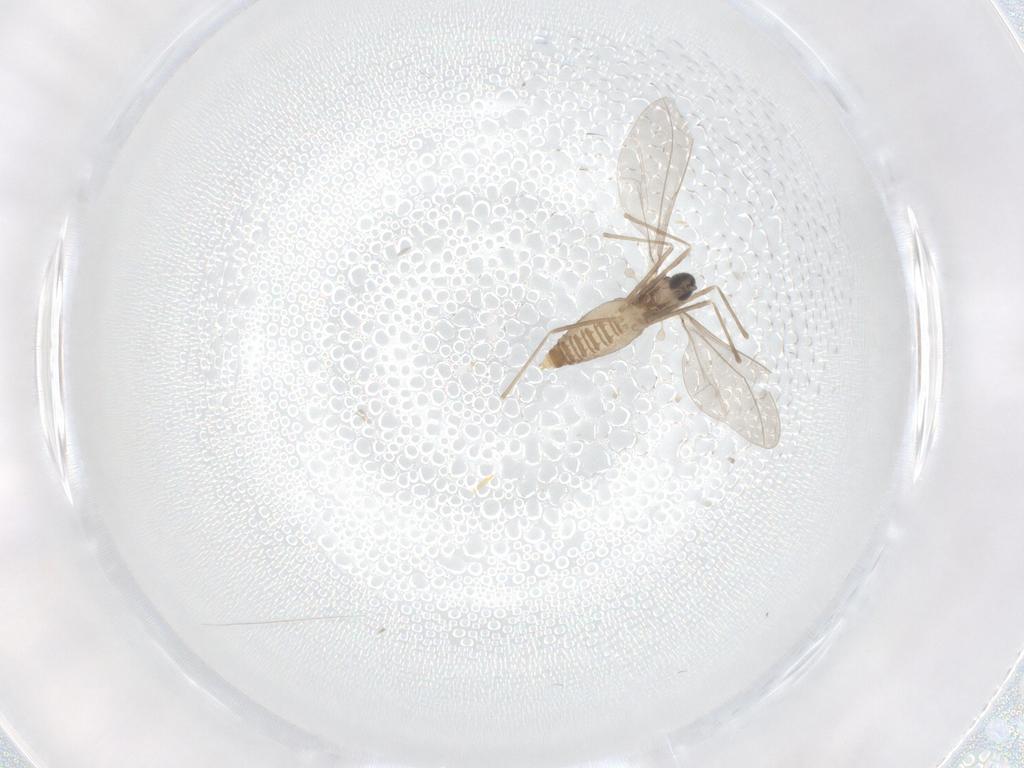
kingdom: Animalia
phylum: Arthropoda
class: Insecta
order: Diptera
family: Cecidomyiidae
